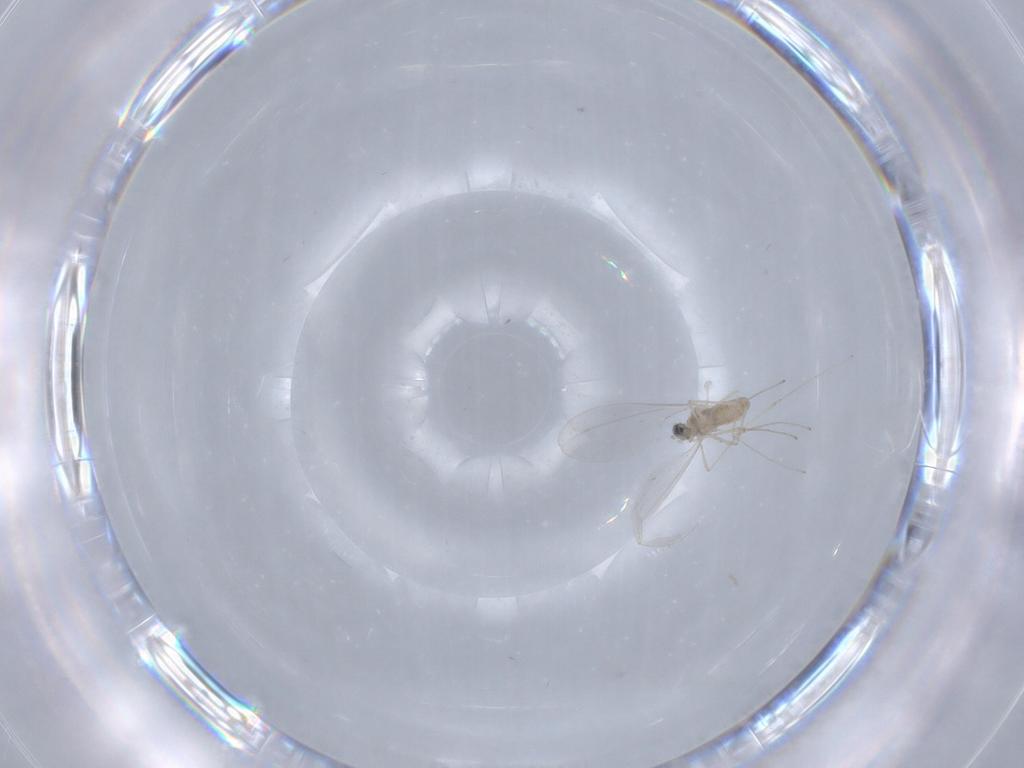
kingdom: Animalia
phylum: Arthropoda
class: Insecta
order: Diptera
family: Cecidomyiidae
